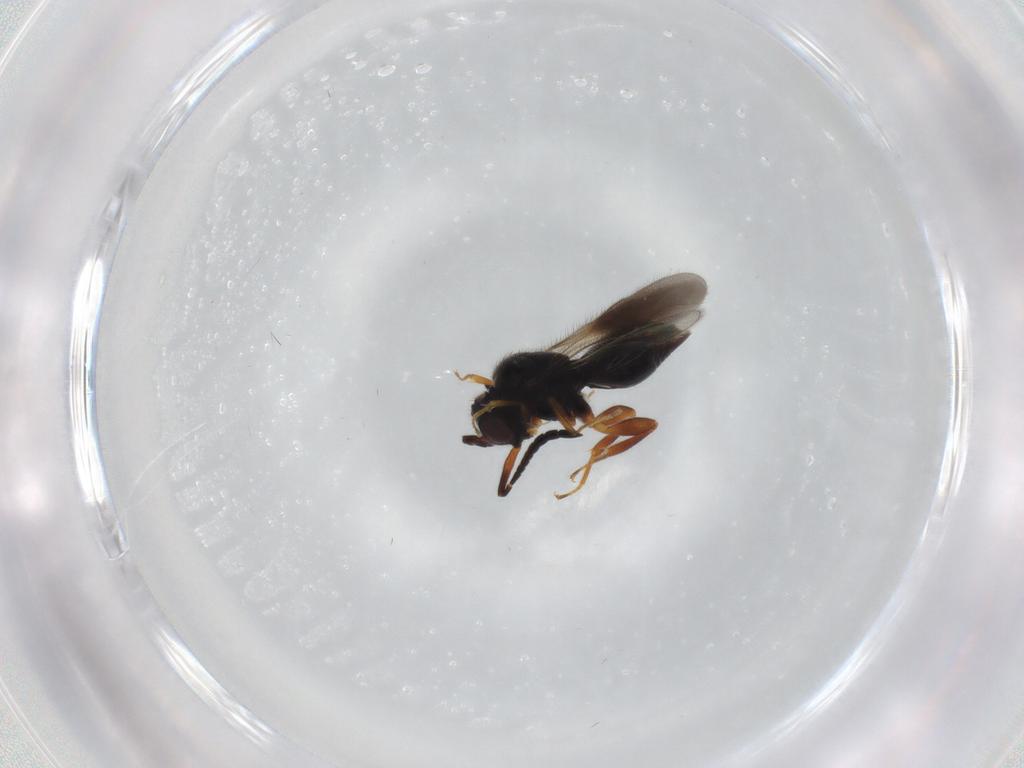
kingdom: Animalia
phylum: Arthropoda
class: Insecta
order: Hymenoptera
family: Ceraphronidae
